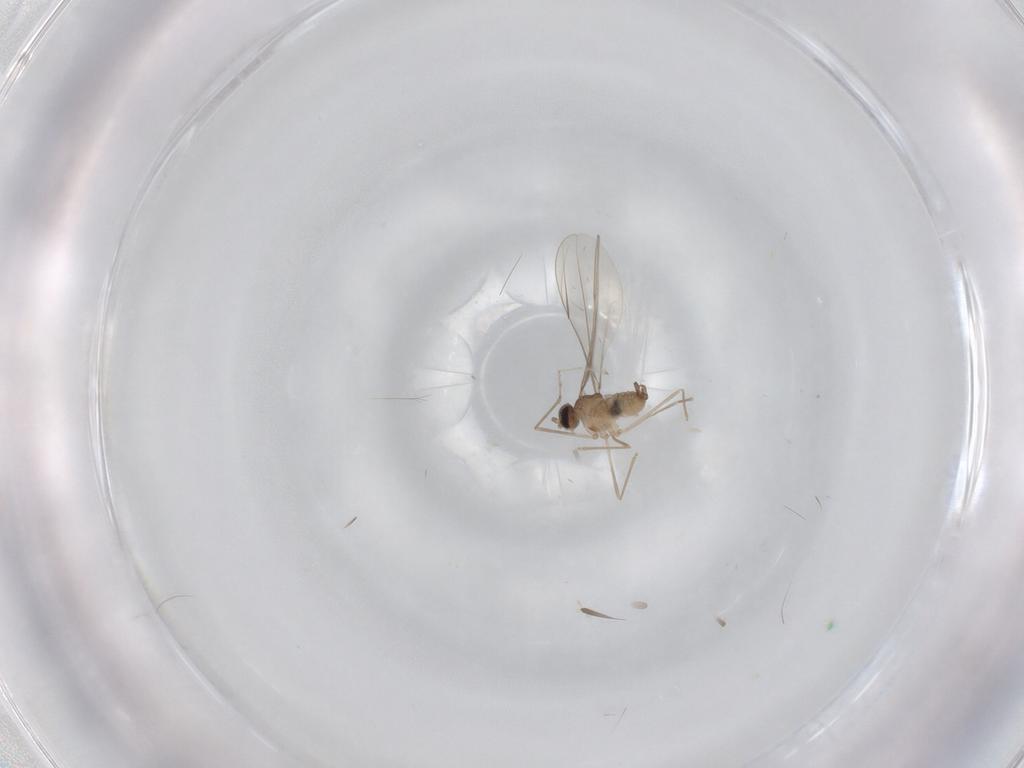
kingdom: Animalia
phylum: Arthropoda
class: Insecta
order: Diptera
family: Cecidomyiidae
